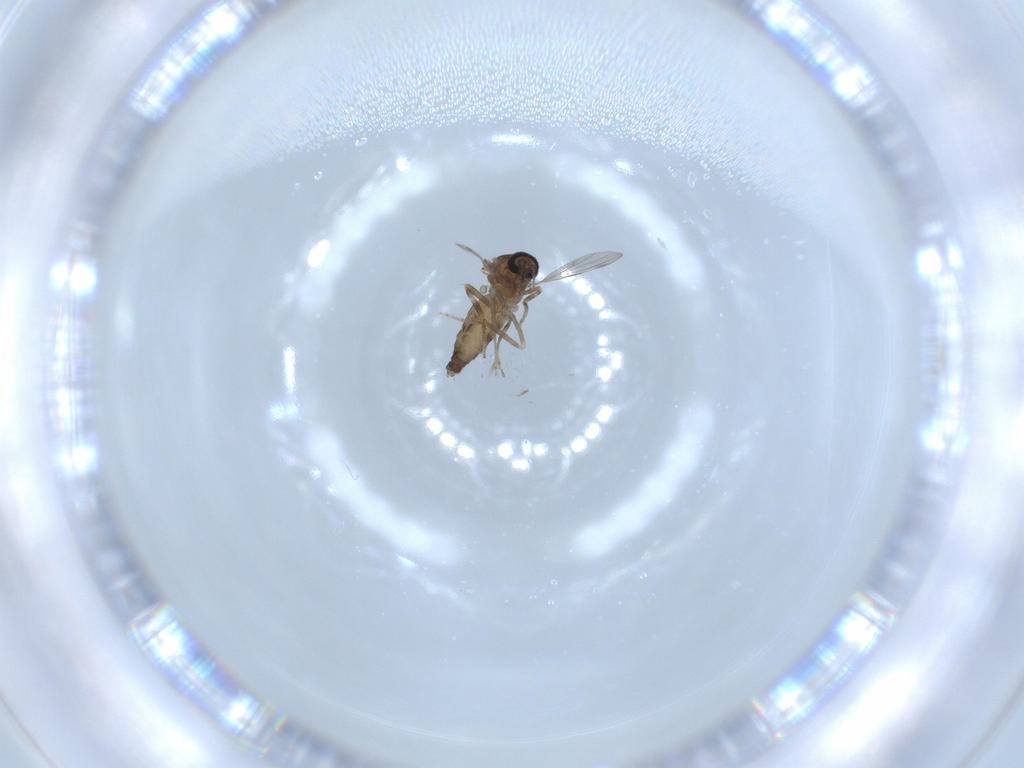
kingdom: Animalia
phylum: Arthropoda
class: Insecta
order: Diptera
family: Ceratopogonidae
